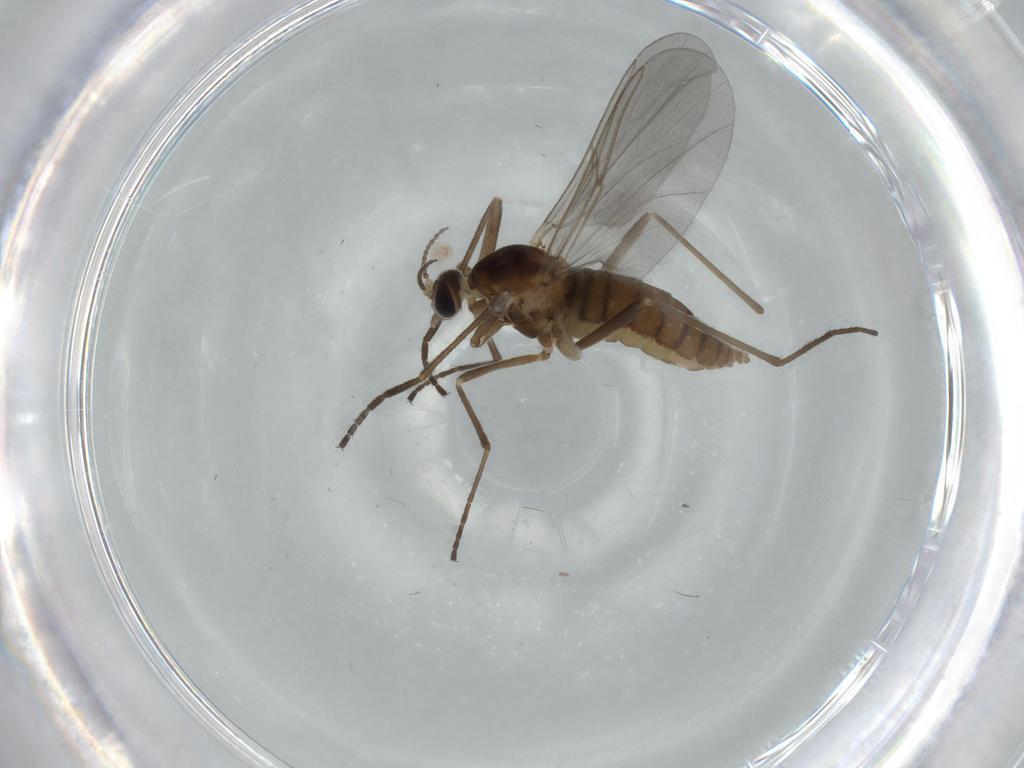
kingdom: Animalia
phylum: Arthropoda
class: Insecta
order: Diptera
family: Cecidomyiidae
